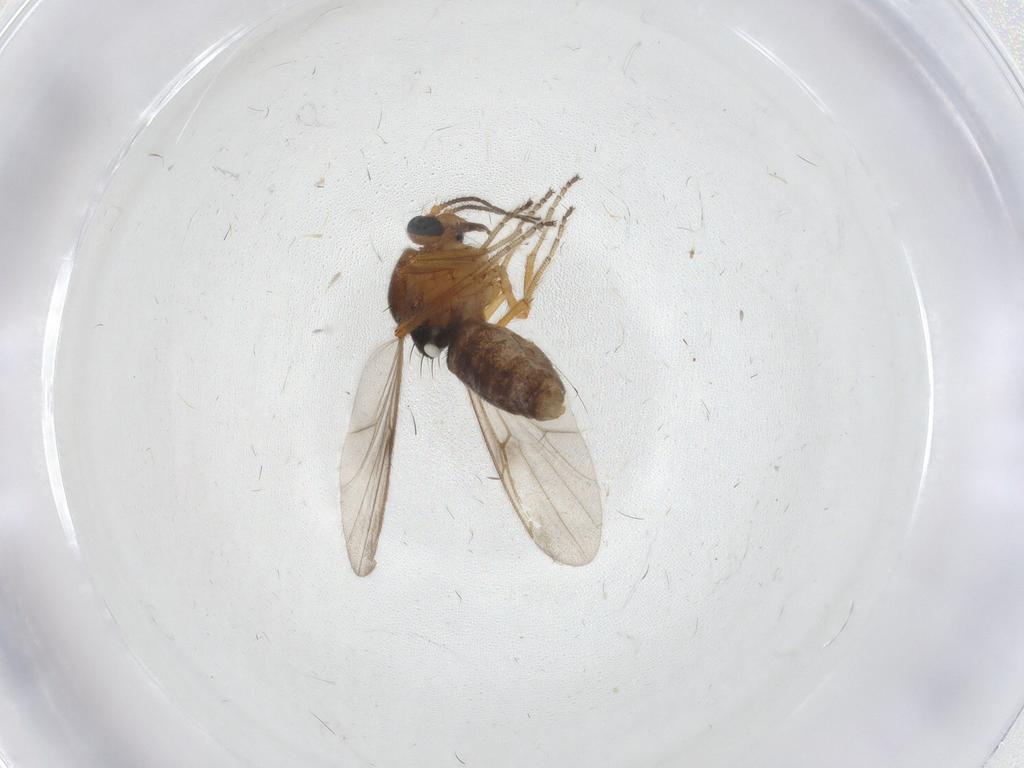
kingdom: Animalia
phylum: Arthropoda
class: Insecta
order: Diptera
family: Ceratopogonidae
